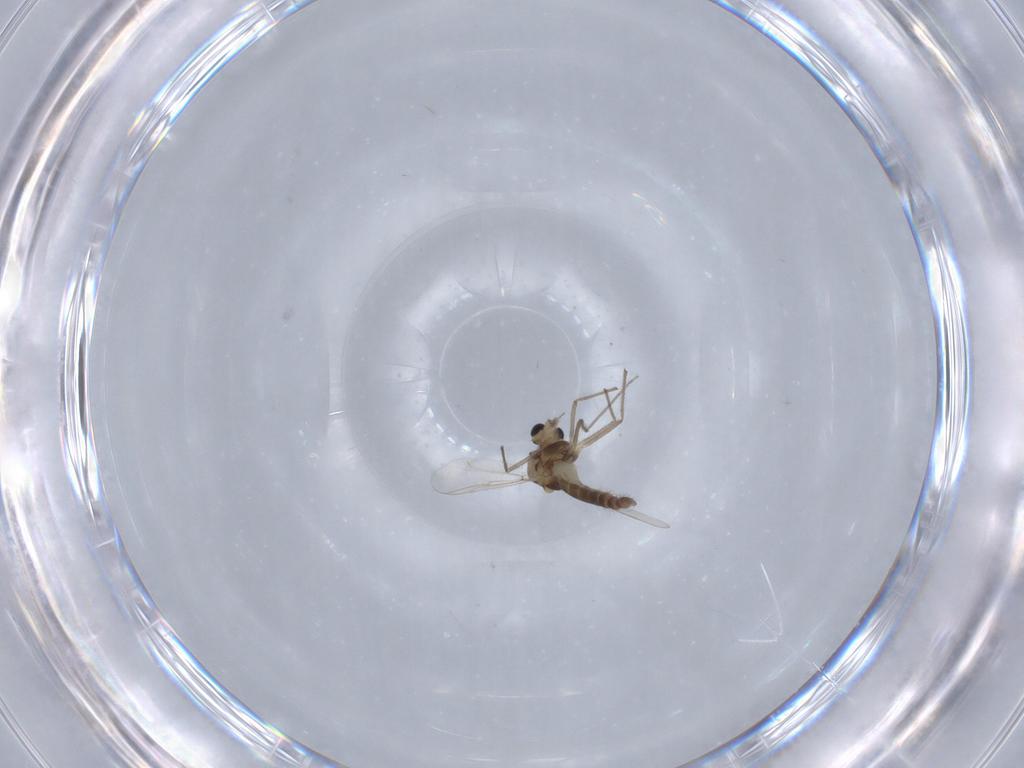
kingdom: Animalia
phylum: Arthropoda
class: Insecta
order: Diptera
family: Chironomidae
